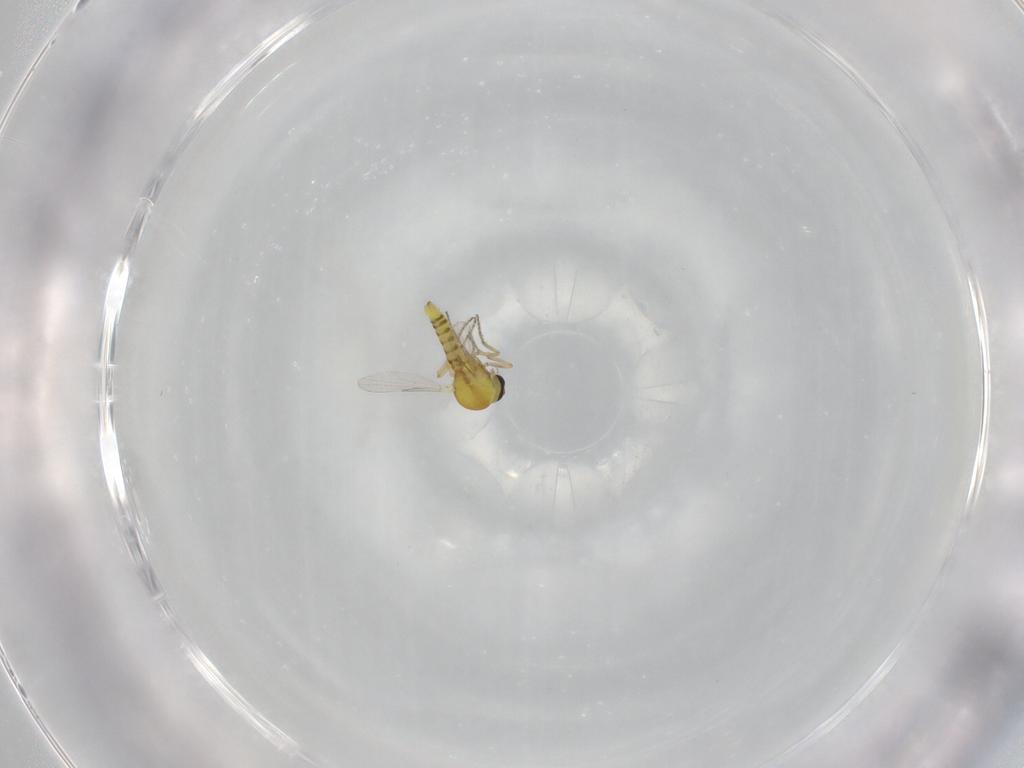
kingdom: Animalia
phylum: Arthropoda
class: Insecta
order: Diptera
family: Ceratopogonidae
